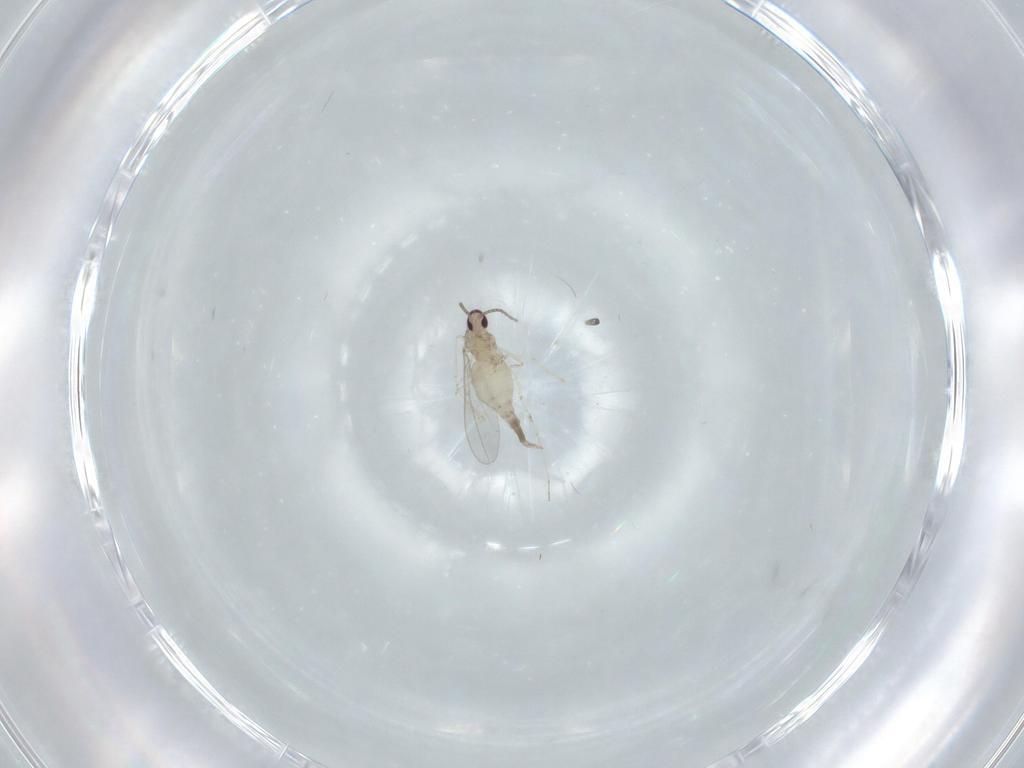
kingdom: Animalia
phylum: Arthropoda
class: Insecta
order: Diptera
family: Cecidomyiidae
